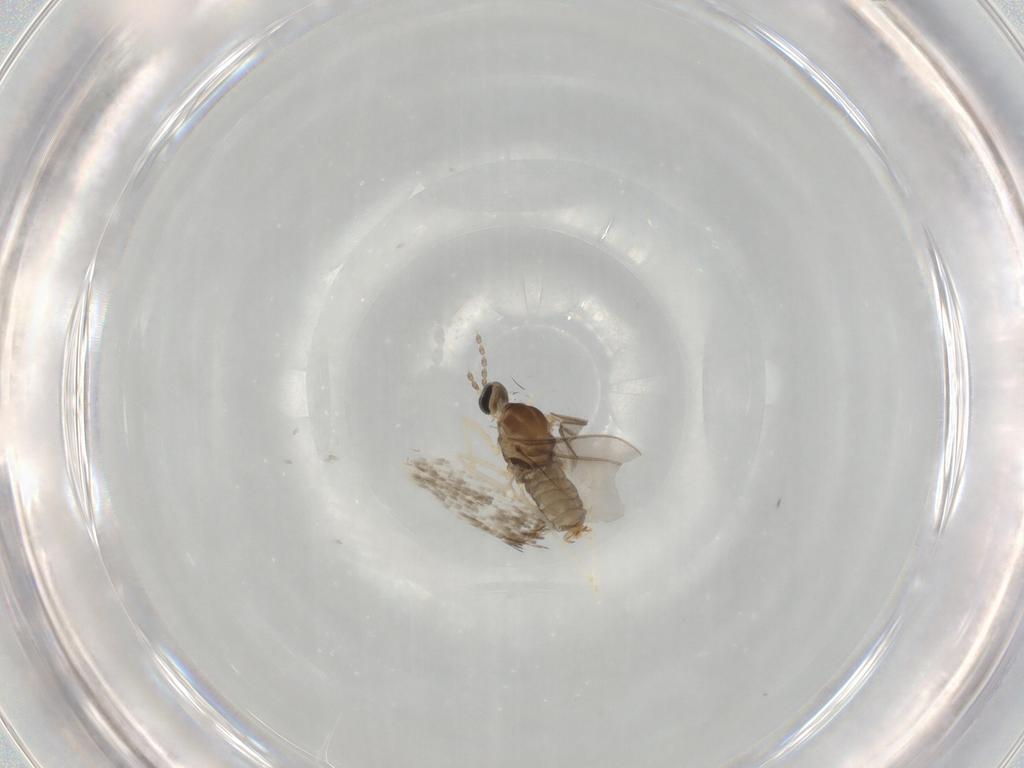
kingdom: Animalia
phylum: Arthropoda
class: Insecta
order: Diptera
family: Cecidomyiidae
